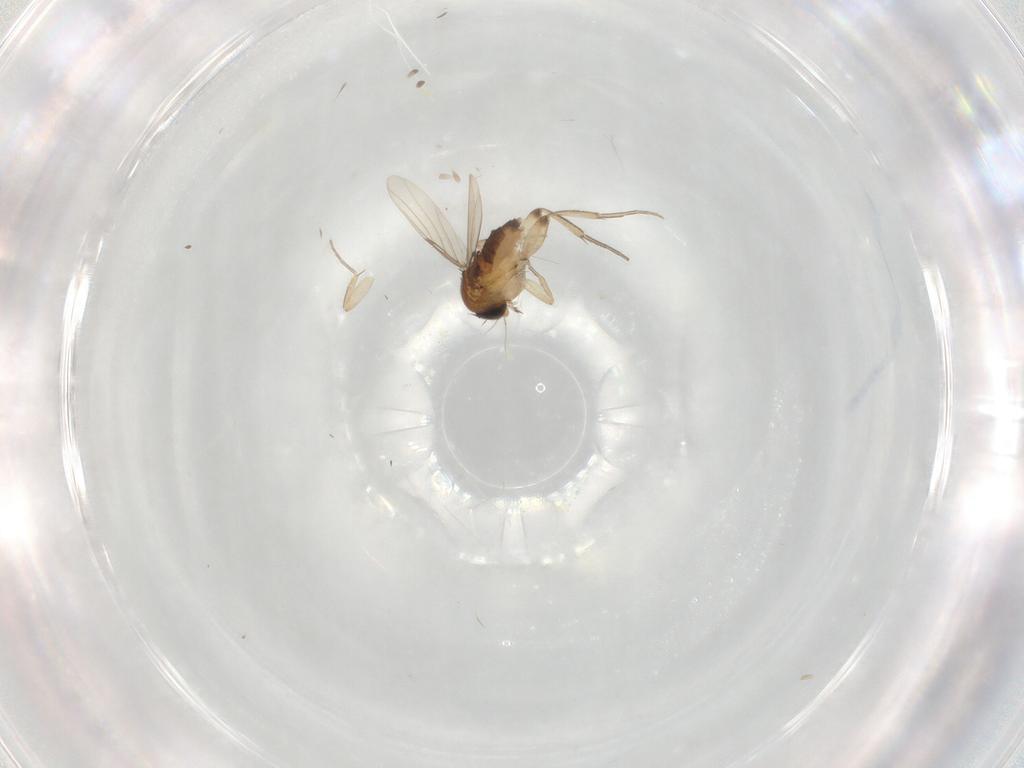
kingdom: Animalia
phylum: Arthropoda
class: Insecta
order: Diptera
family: Phoridae
